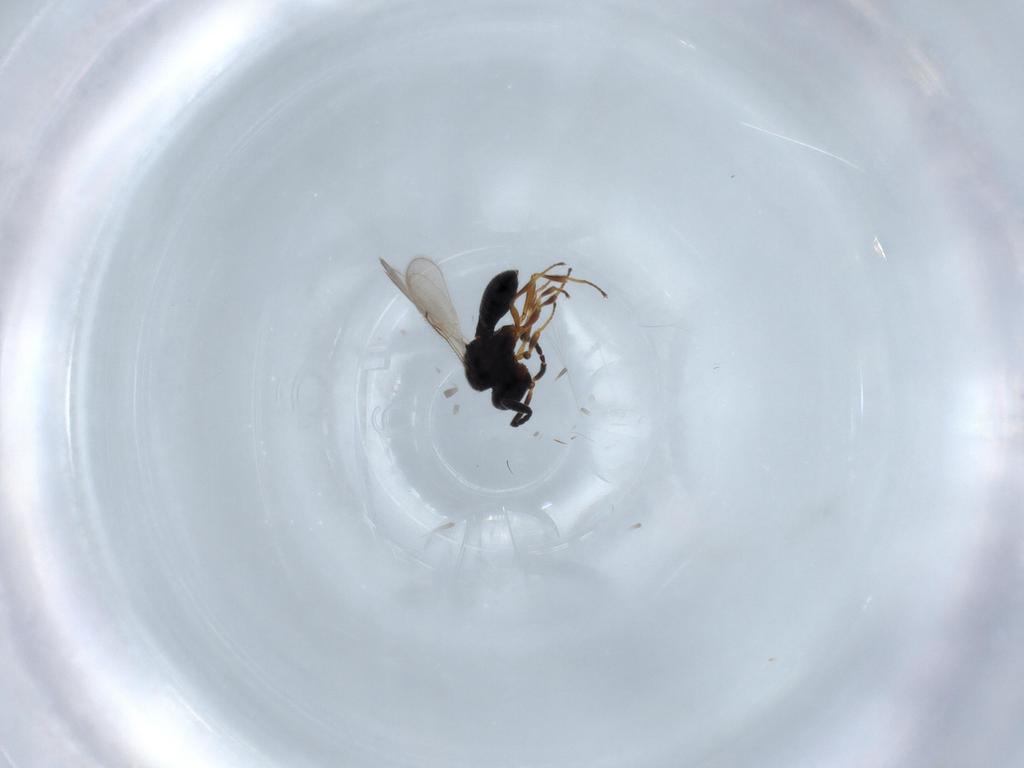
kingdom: Animalia
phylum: Arthropoda
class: Insecta
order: Hymenoptera
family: Scelionidae
